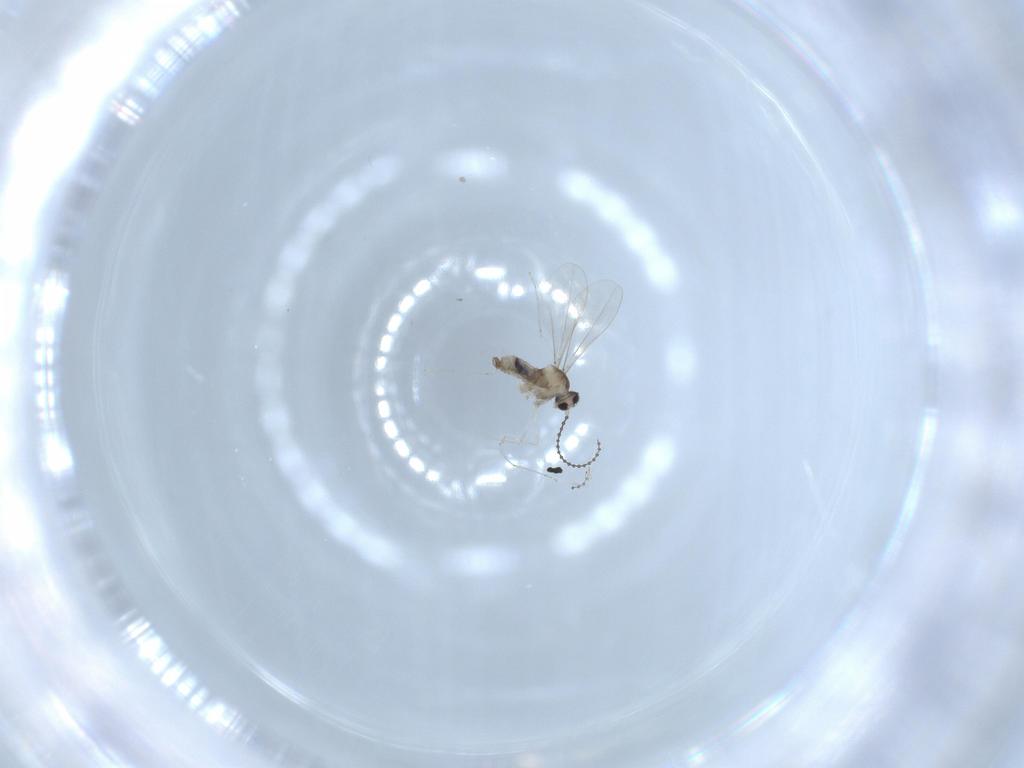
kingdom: Animalia
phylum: Arthropoda
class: Insecta
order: Diptera
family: Cecidomyiidae
